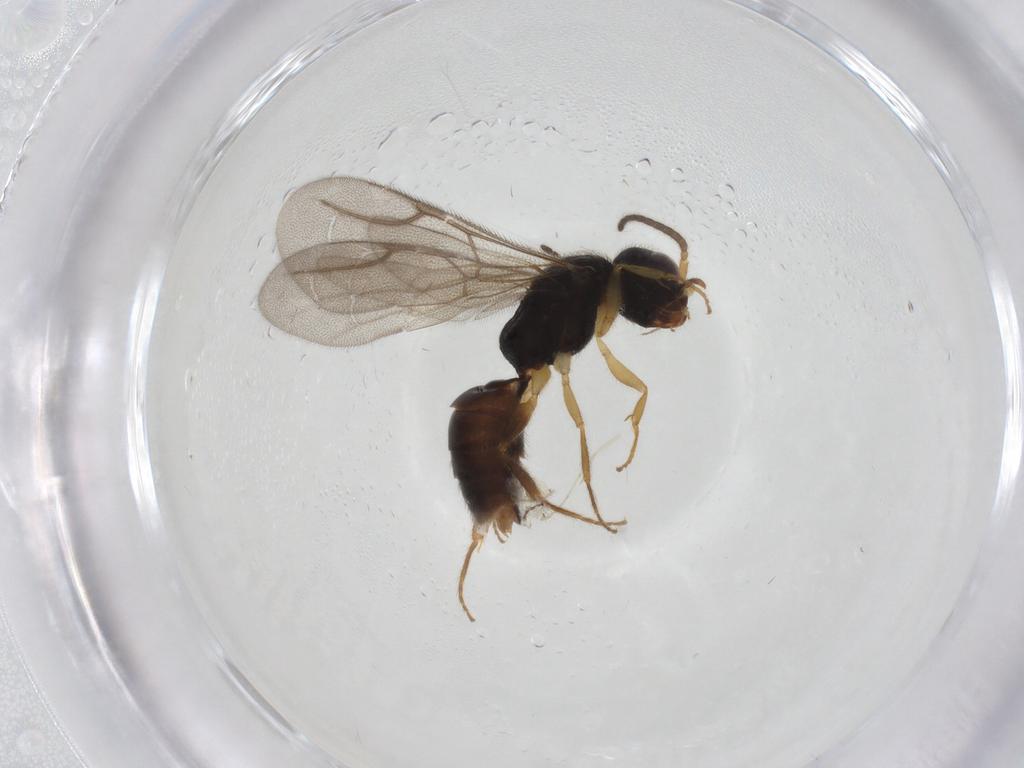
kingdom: Animalia
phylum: Arthropoda
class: Insecta
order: Hymenoptera
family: Bethylidae
